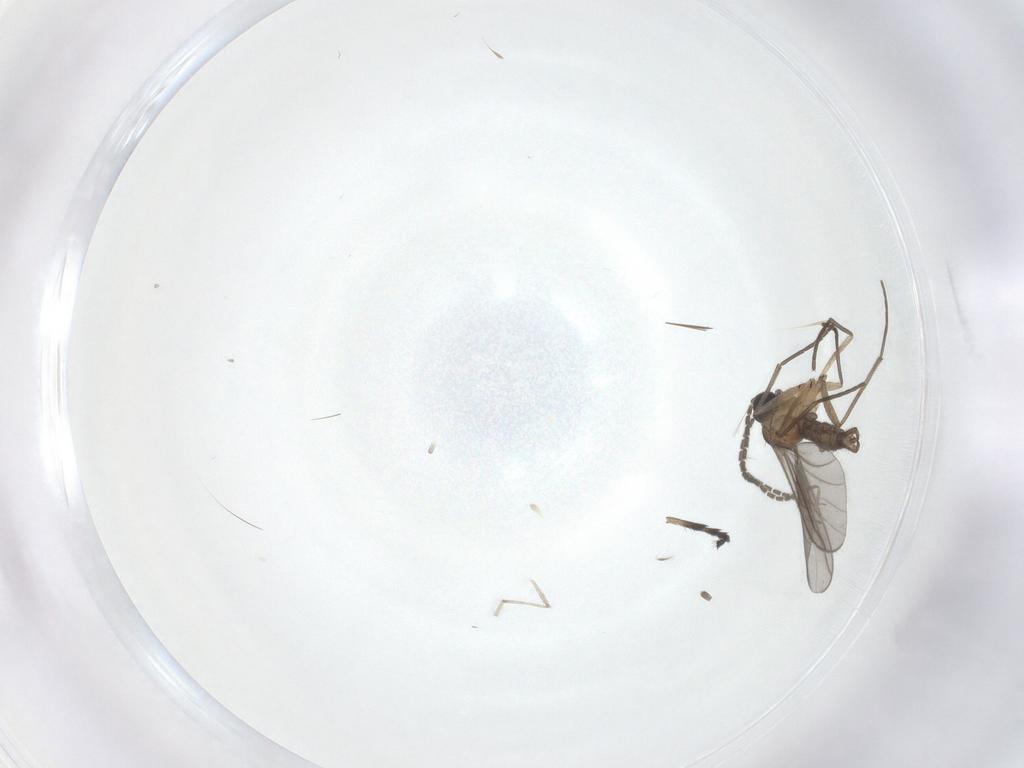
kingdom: Animalia
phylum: Arthropoda
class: Insecta
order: Diptera
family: Cecidomyiidae
